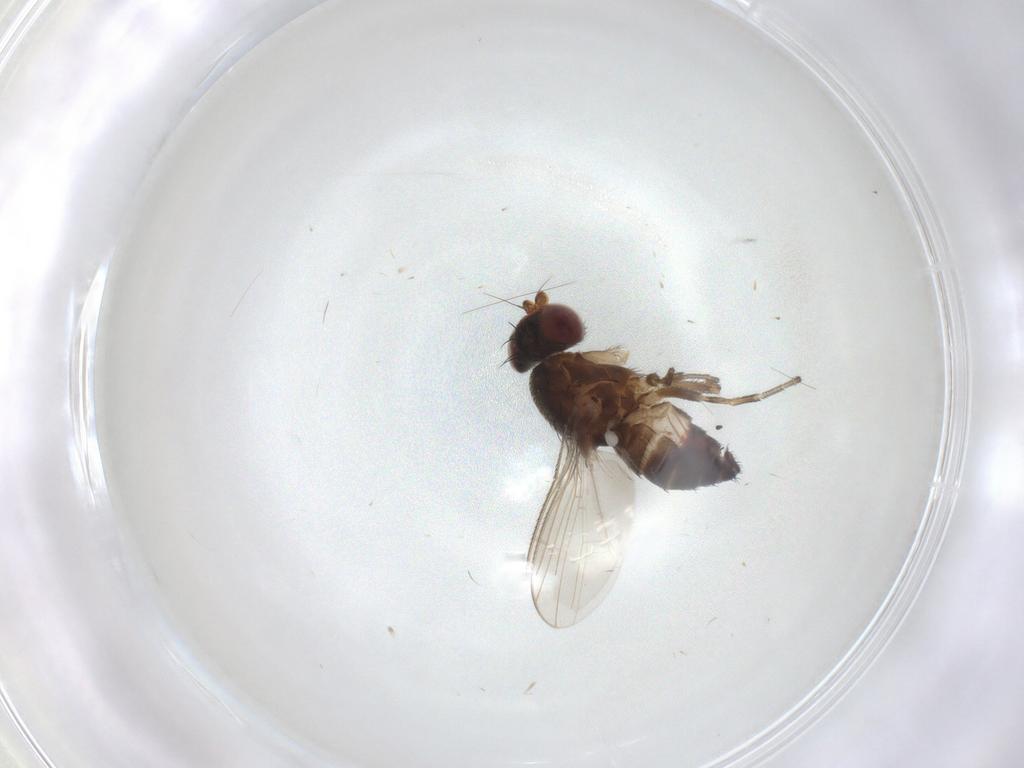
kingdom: Animalia
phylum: Arthropoda
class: Insecta
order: Diptera
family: Heleomyzidae
